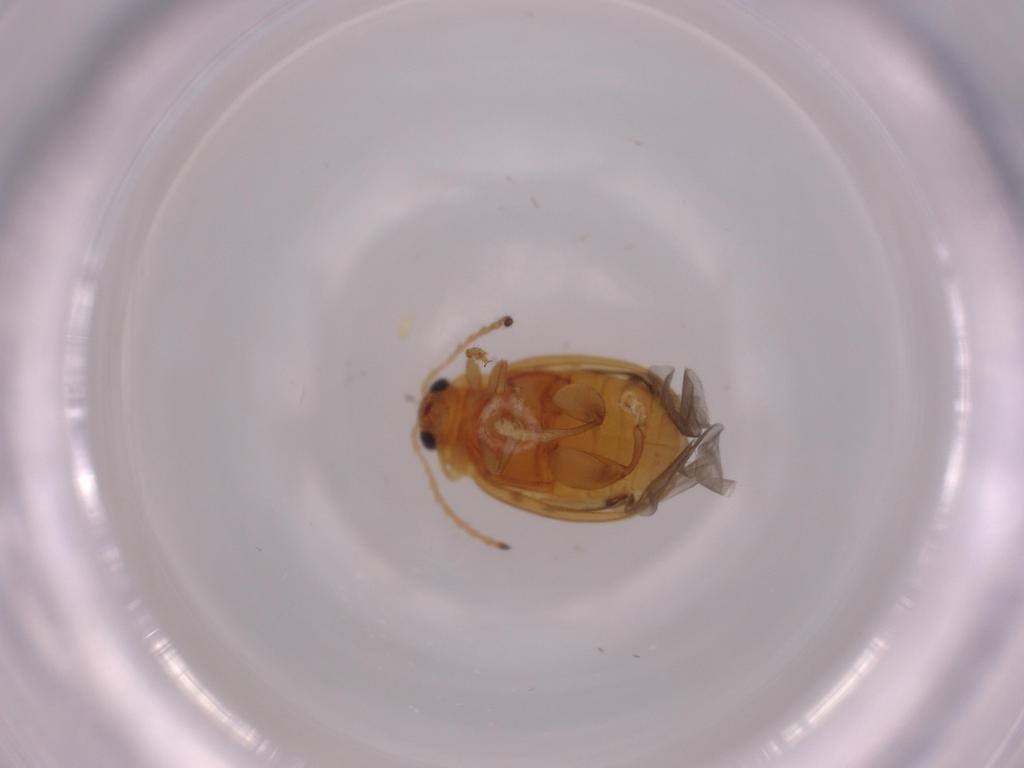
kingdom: Animalia
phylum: Arthropoda
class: Insecta
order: Coleoptera
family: Chrysomelidae
